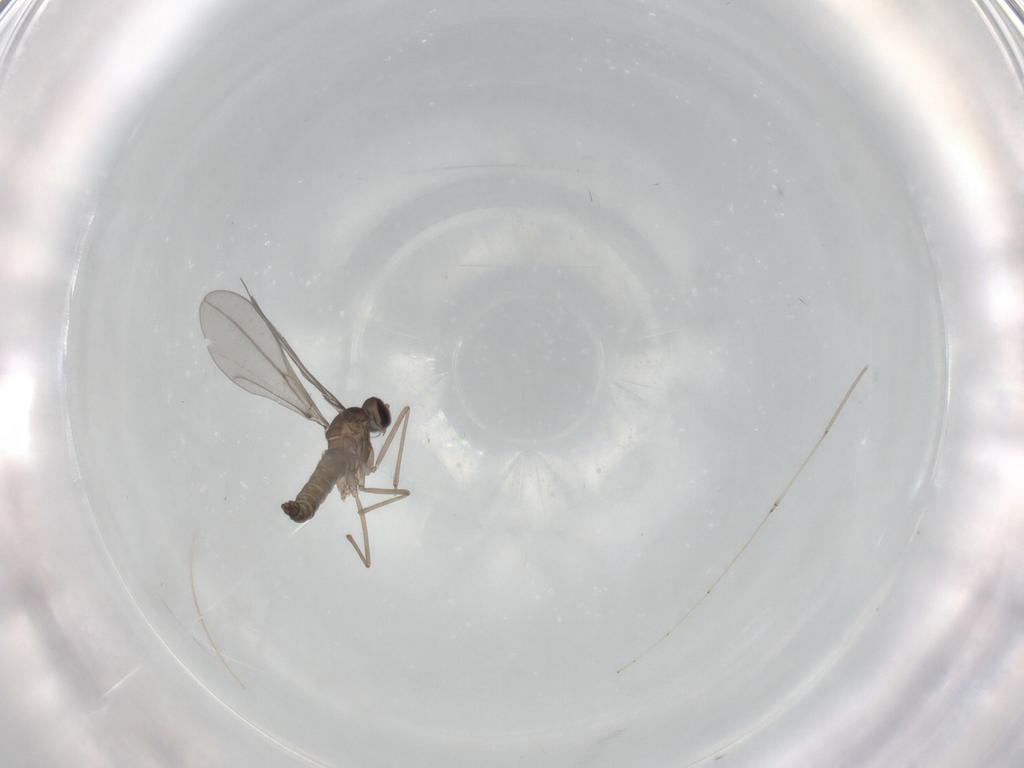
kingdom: Animalia
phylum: Arthropoda
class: Insecta
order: Diptera
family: Cecidomyiidae
